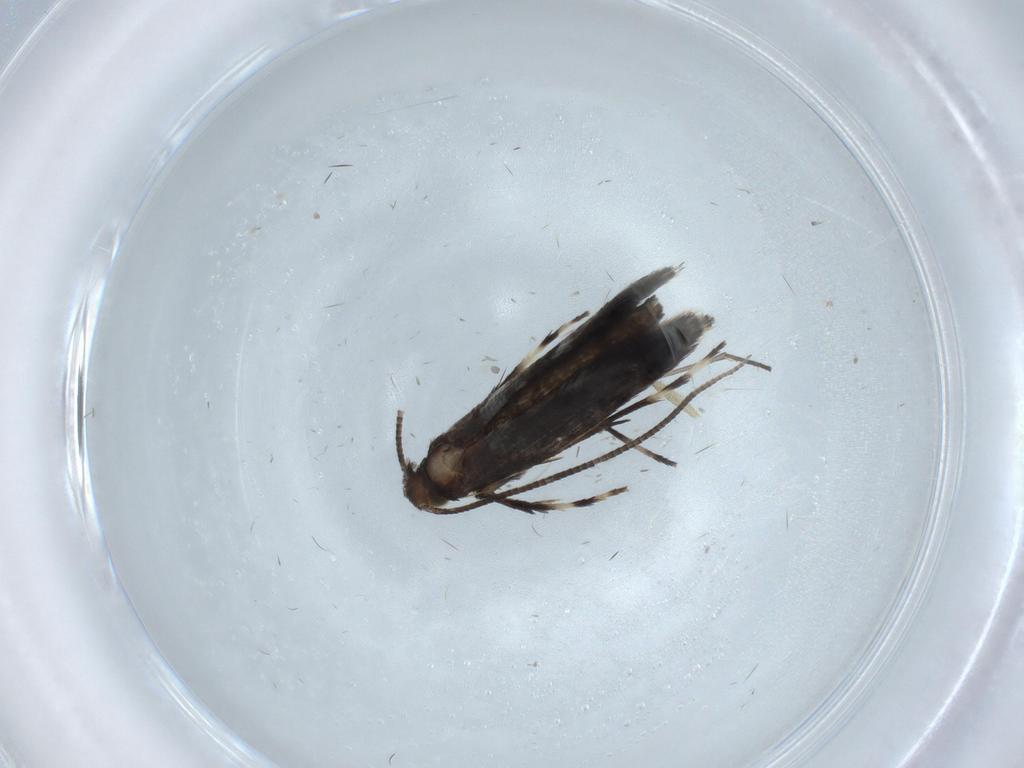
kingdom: Animalia
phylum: Arthropoda
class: Insecta
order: Lepidoptera
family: Gracillariidae
